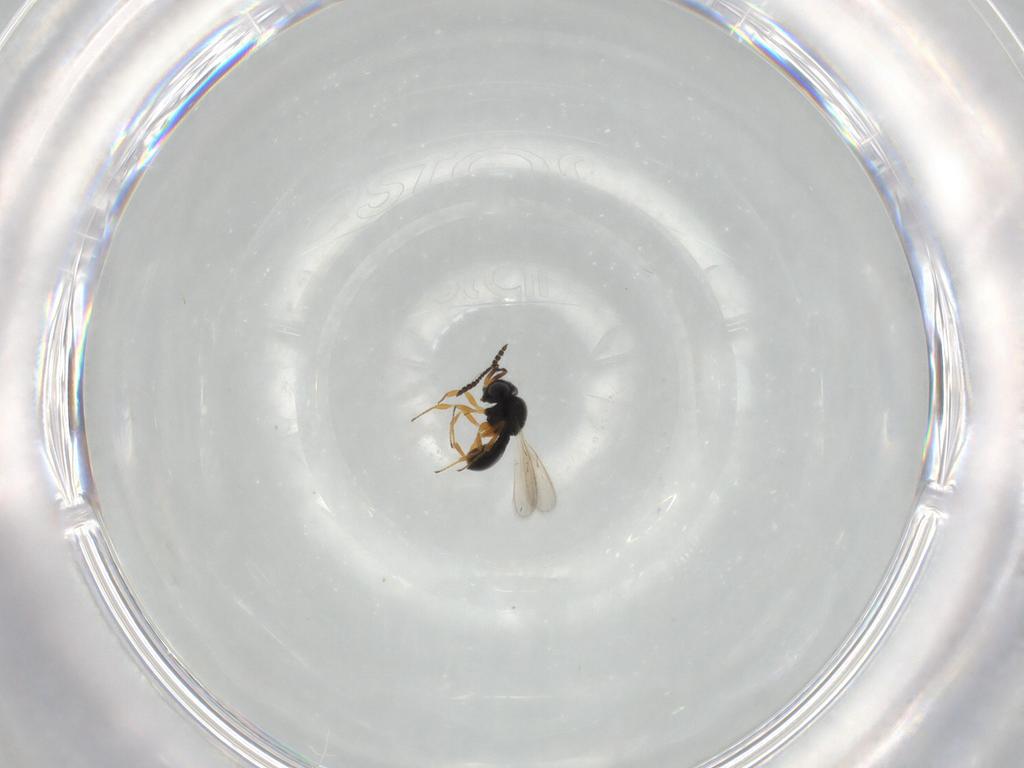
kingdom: Animalia
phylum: Arthropoda
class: Insecta
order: Hymenoptera
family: Scelionidae
